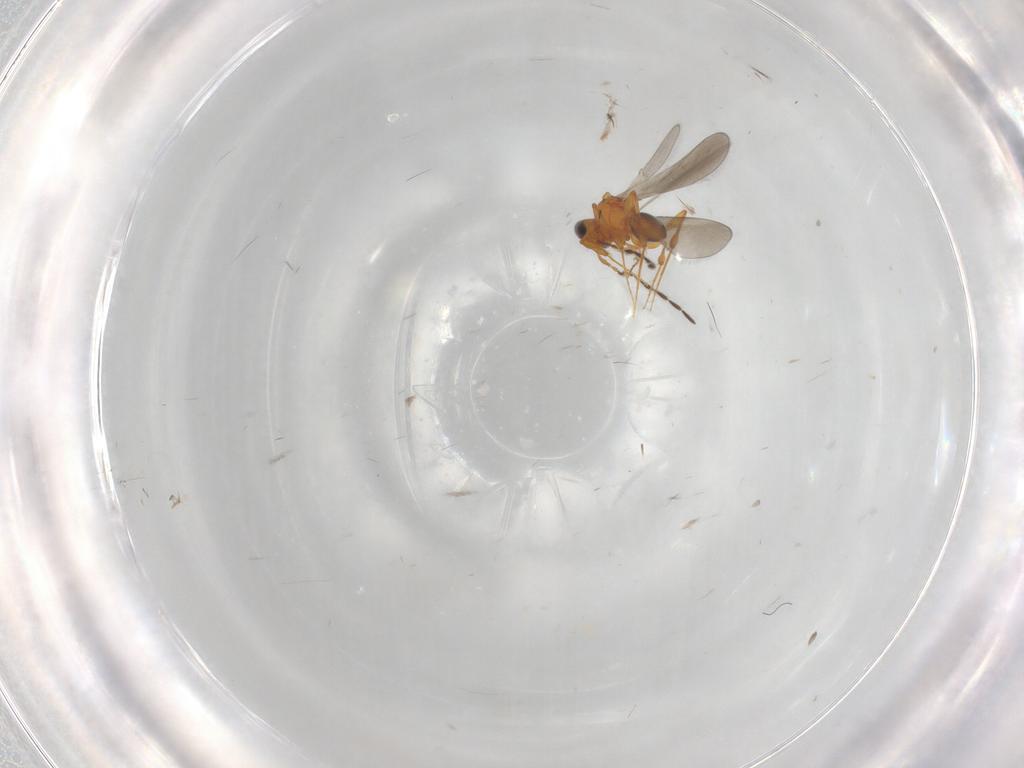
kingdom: Animalia
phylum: Arthropoda
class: Insecta
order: Hymenoptera
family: Platygastridae
